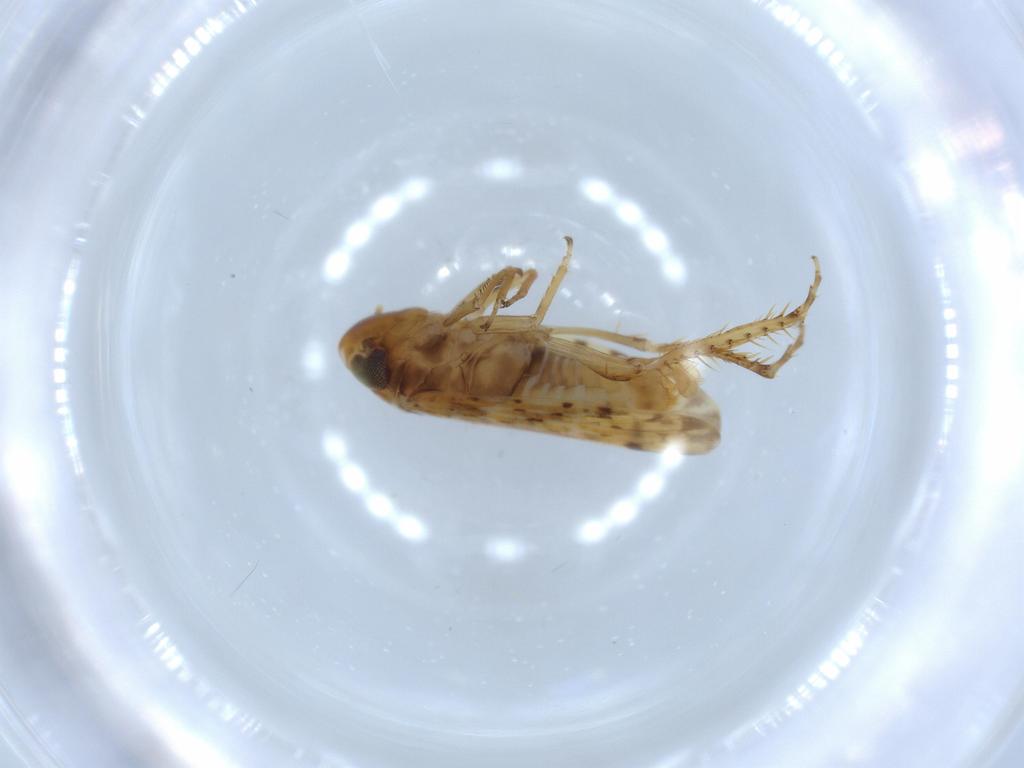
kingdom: Animalia
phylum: Arthropoda
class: Insecta
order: Hemiptera
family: Cicadellidae
